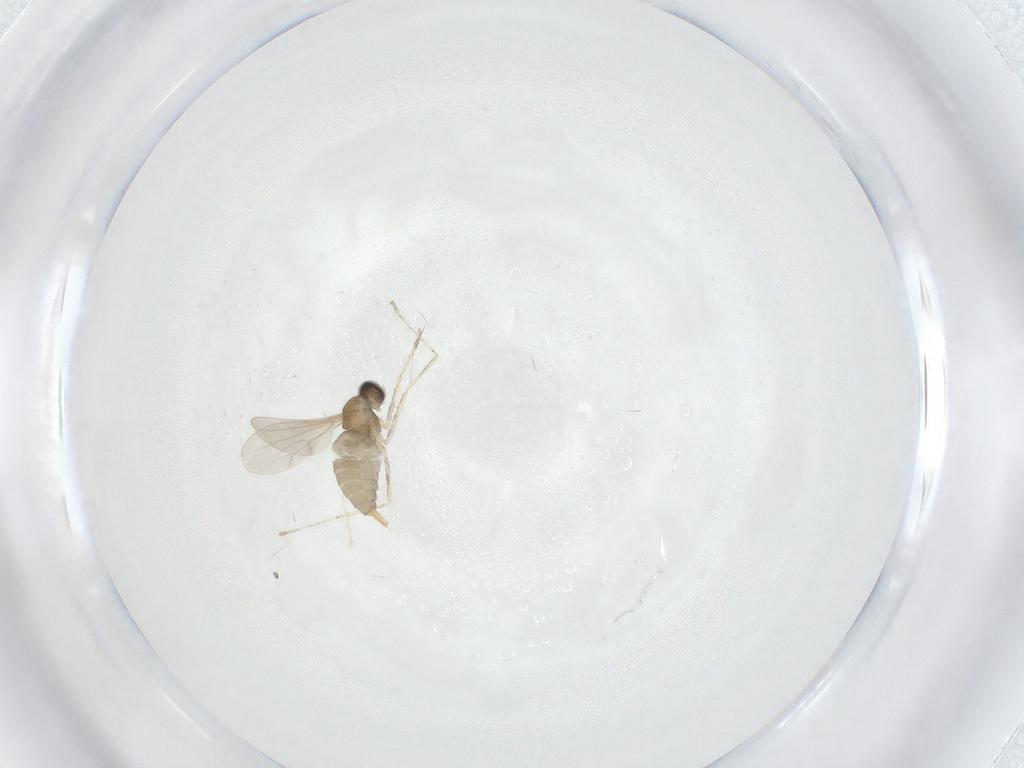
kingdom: Animalia
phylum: Arthropoda
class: Insecta
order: Diptera
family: Cecidomyiidae
